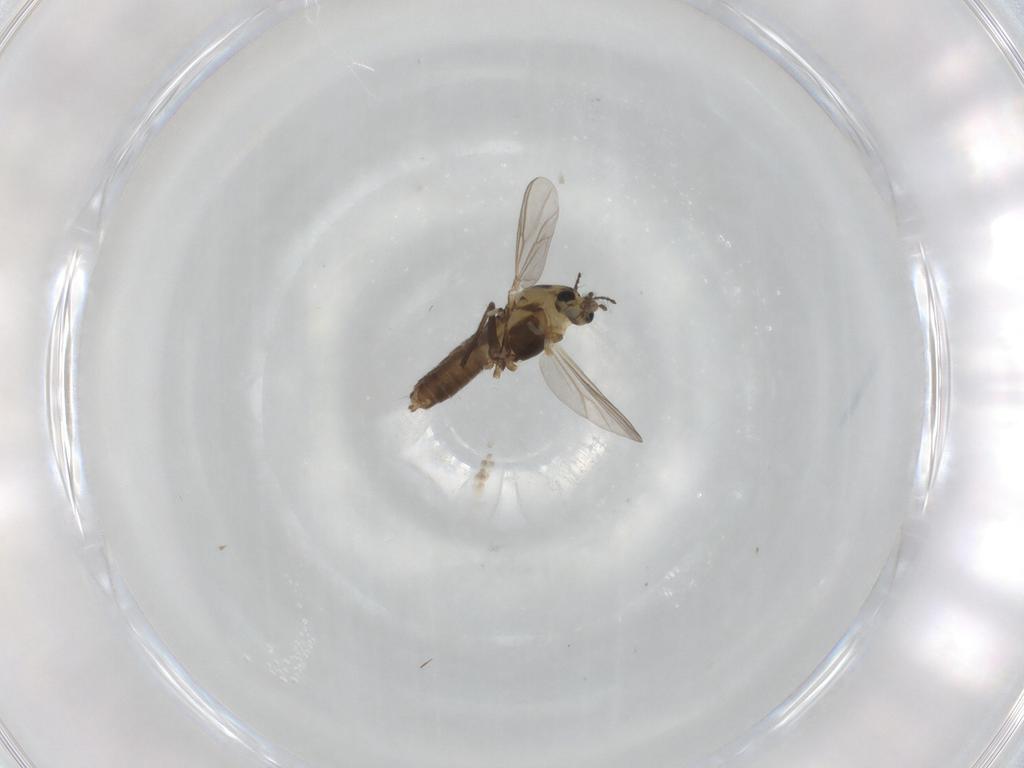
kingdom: Animalia
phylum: Arthropoda
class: Insecta
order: Diptera
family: Chironomidae
